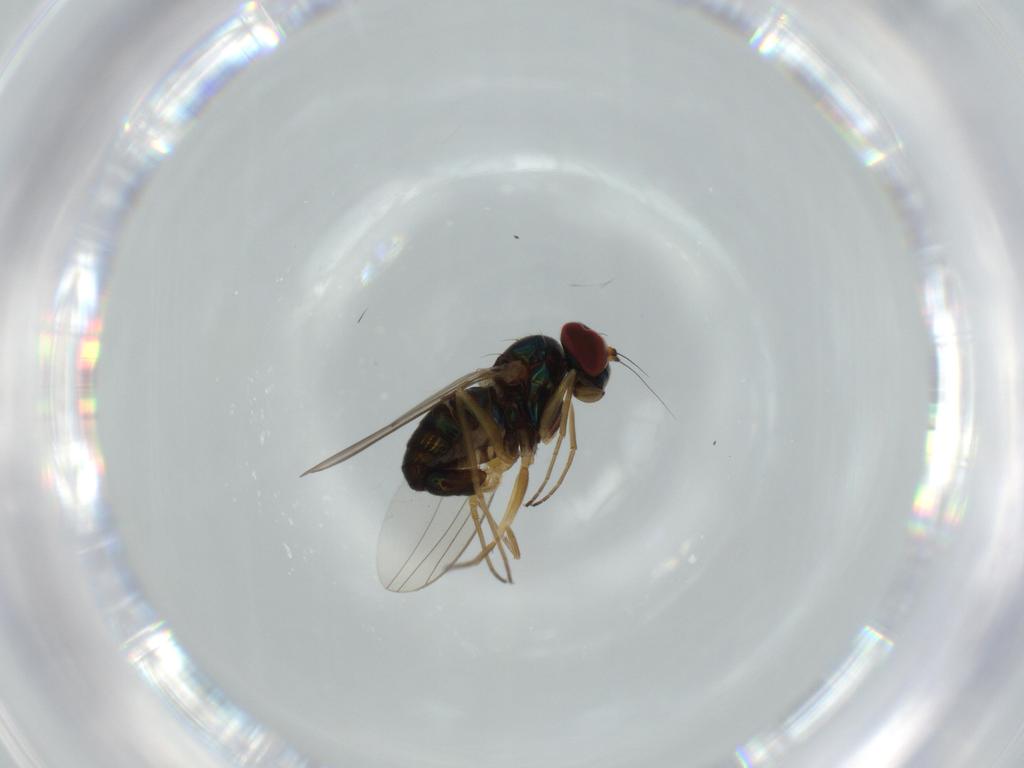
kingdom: Animalia
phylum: Arthropoda
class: Insecta
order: Diptera
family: Dolichopodidae
